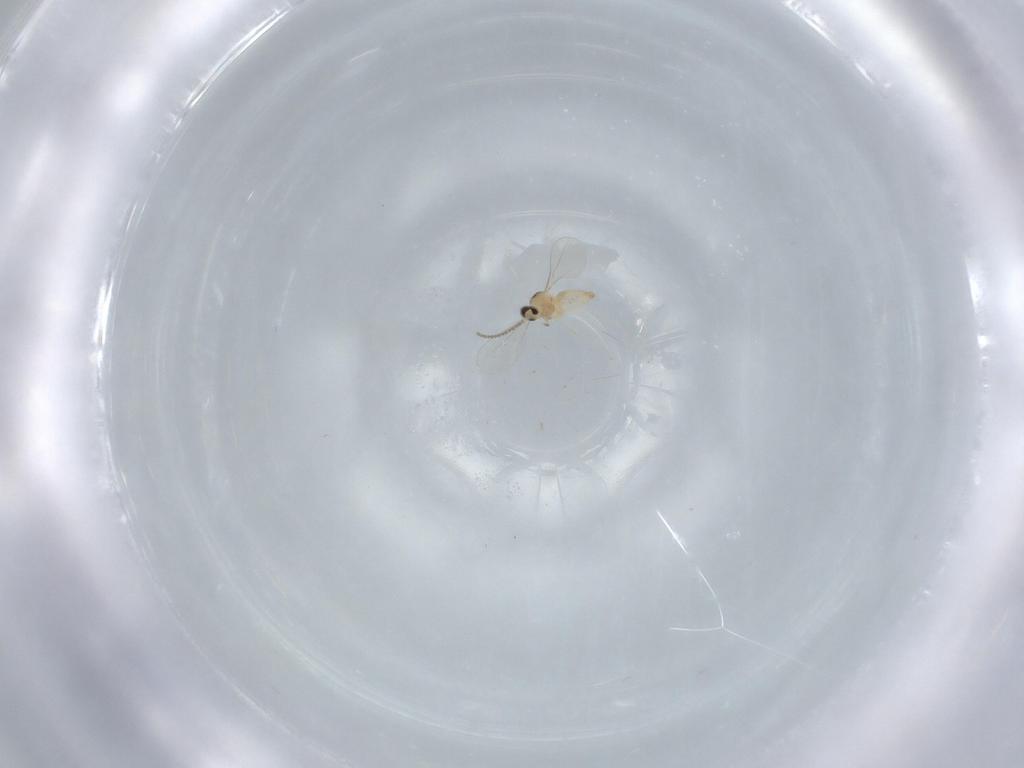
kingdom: Animalia
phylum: Arthropoda
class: Insecta
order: Diptera
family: Cecidomyiidae
